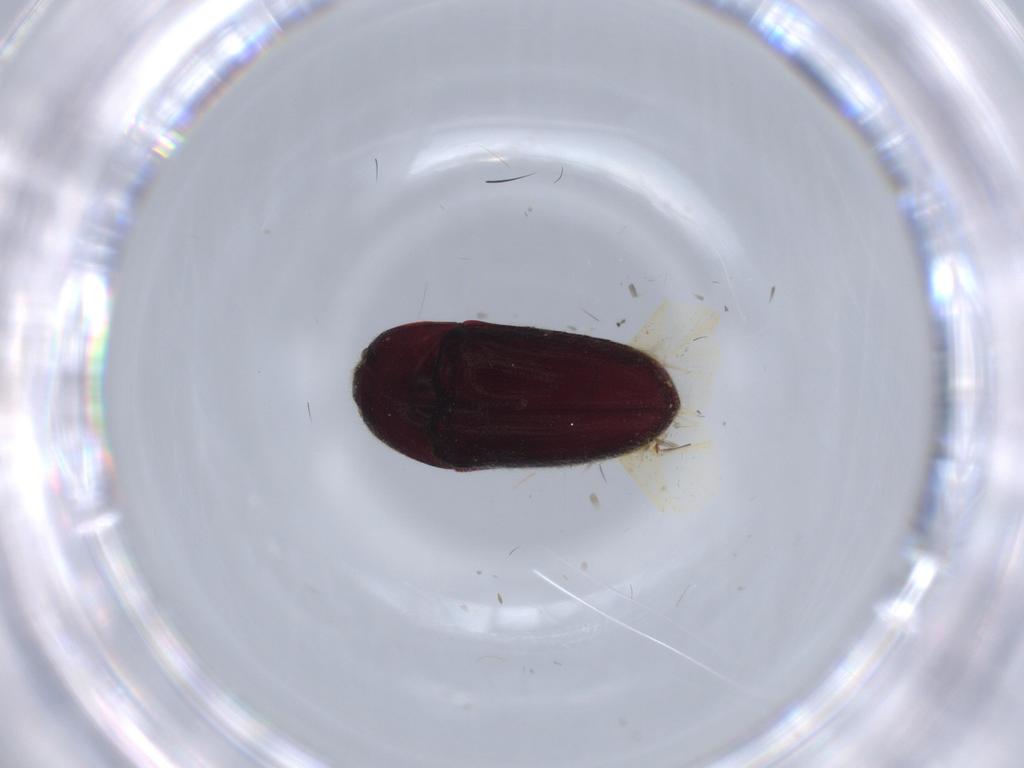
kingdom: Animalia
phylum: Arthropoda
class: Insecta
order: Coleoptera
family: Throscidae
